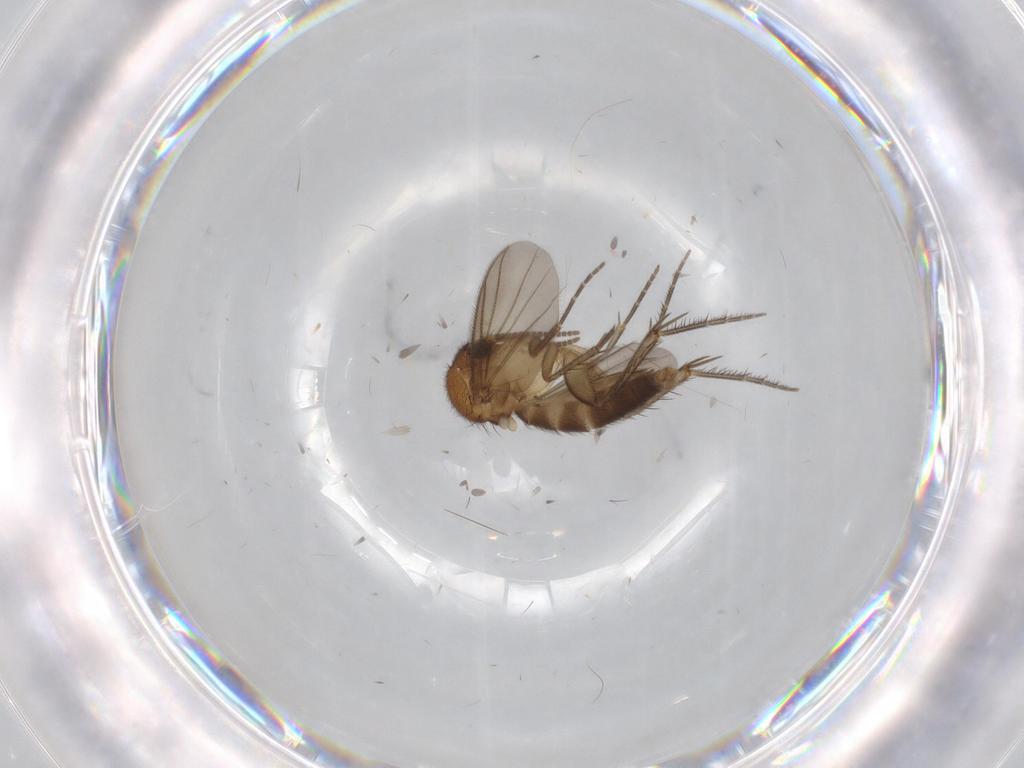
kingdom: Animalia
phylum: Arthropoda
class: Insecta
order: Diptera
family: Mycetophilidae
